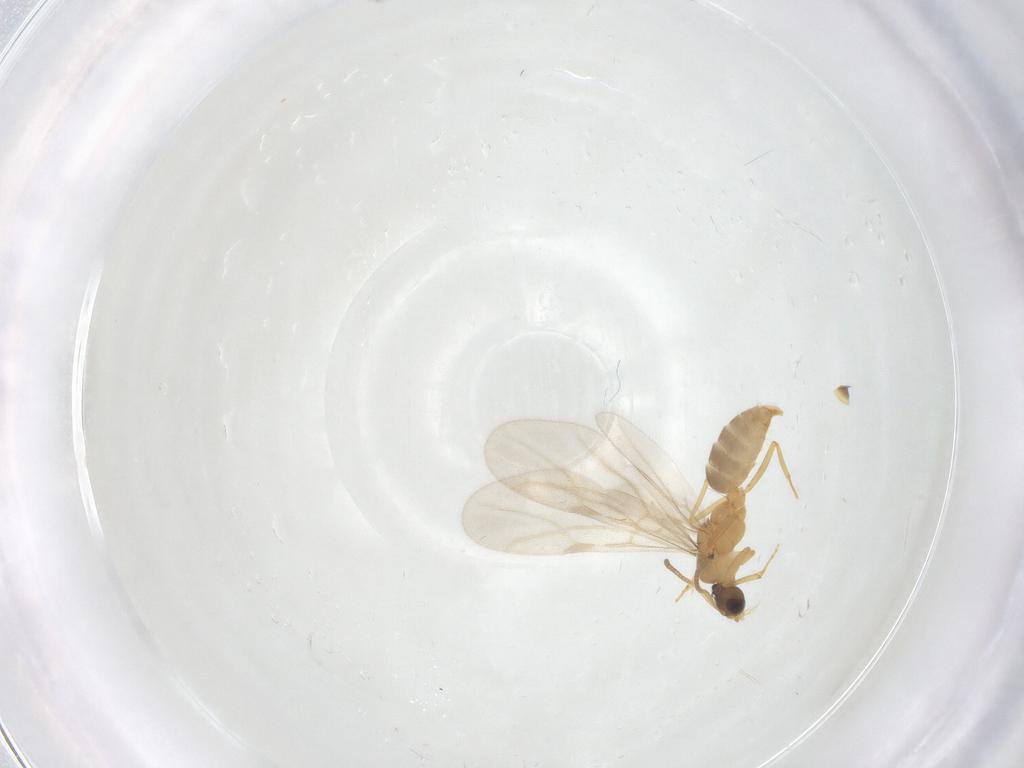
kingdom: Animalia
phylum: Arthropoda
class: Insecta
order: Hymenoptera
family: Formicidae
